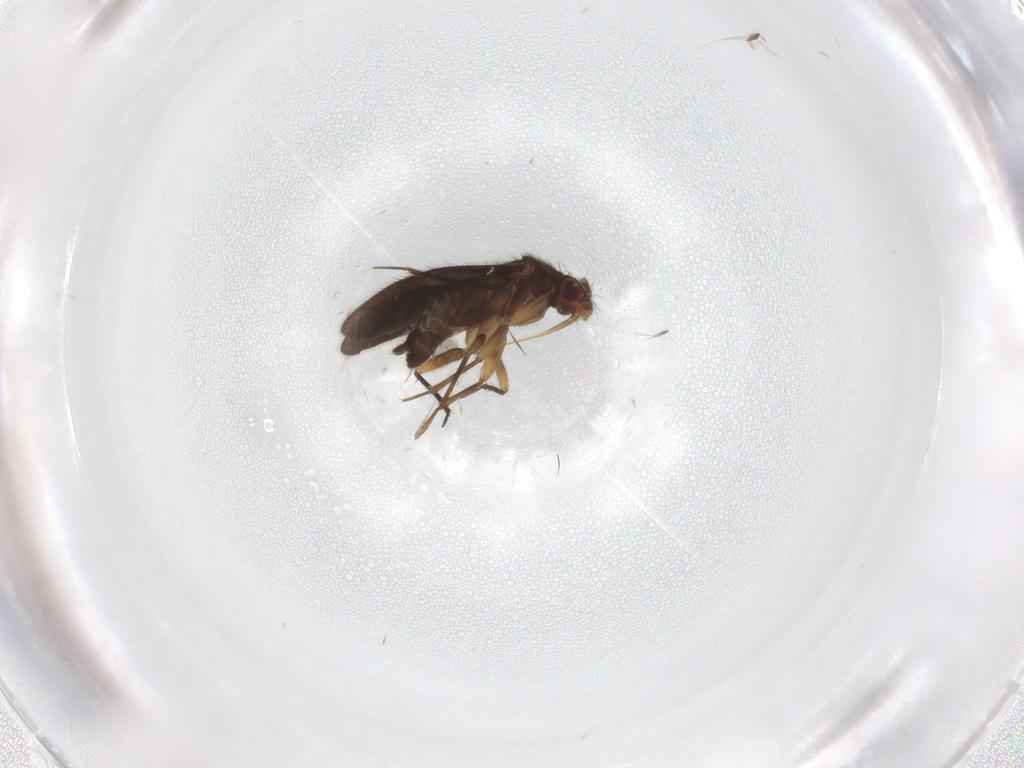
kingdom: Animalia
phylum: Arthropoda
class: Insecta
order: Hemiptera
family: Ceratocombidae
